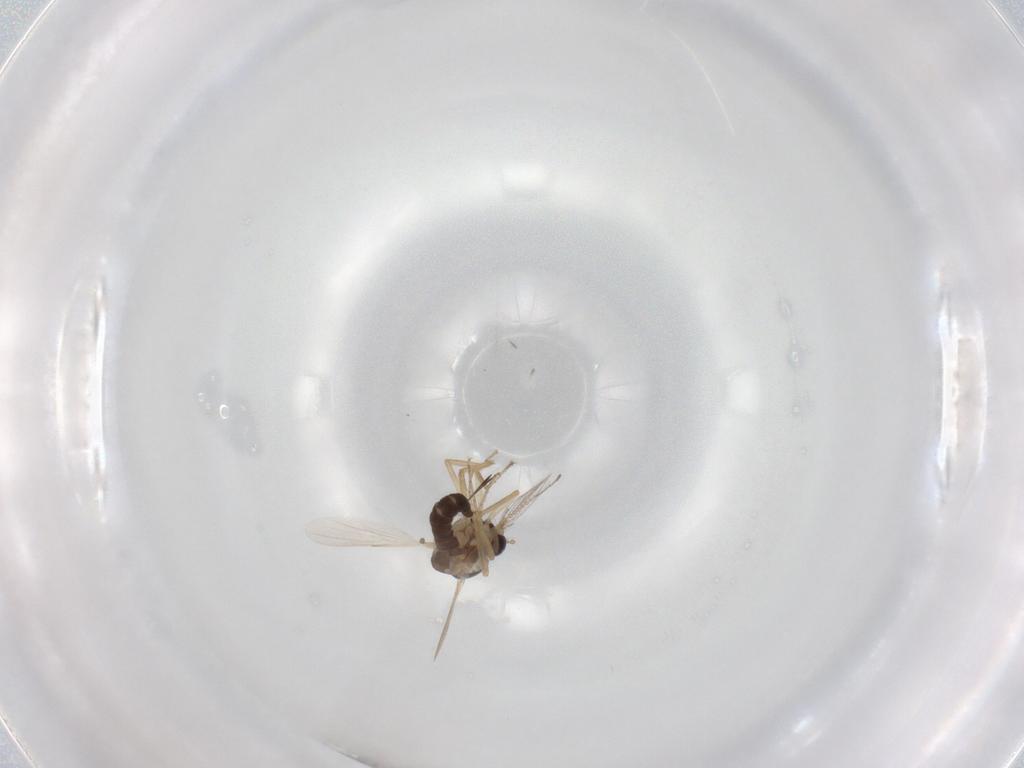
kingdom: Animalia
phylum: Arthropoda
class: Insecta
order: Diptera
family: Ceratopogonidae
